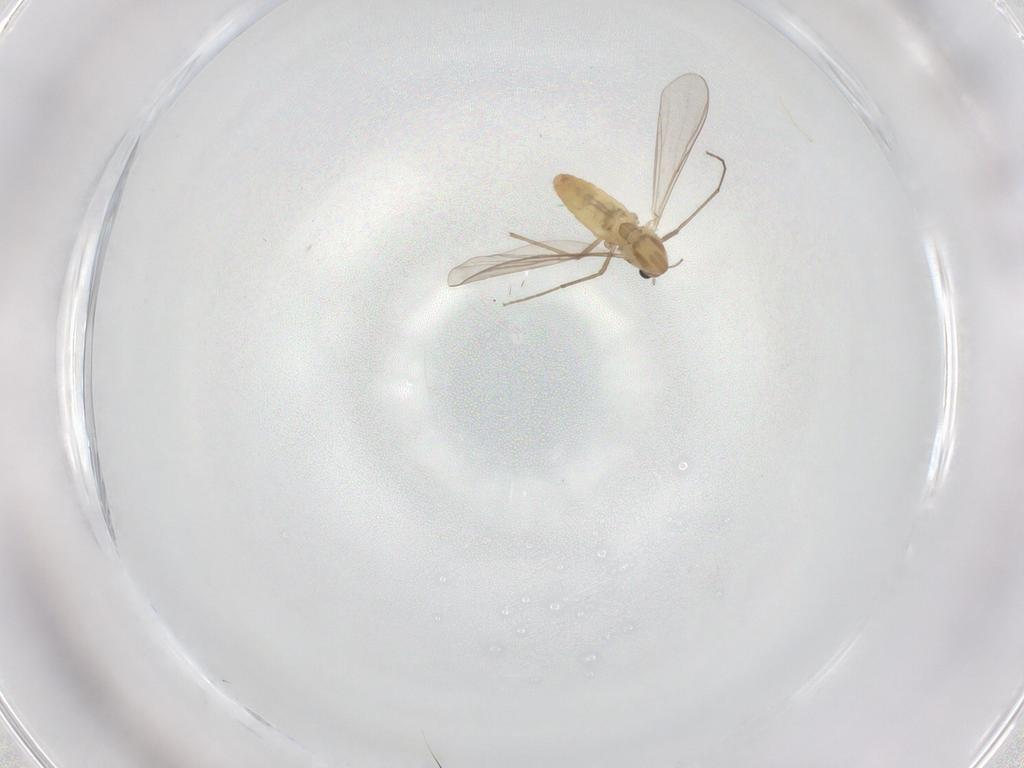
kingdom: Animalia
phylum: Arthropoda
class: Insecta
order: Diptera
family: Chironomidae
